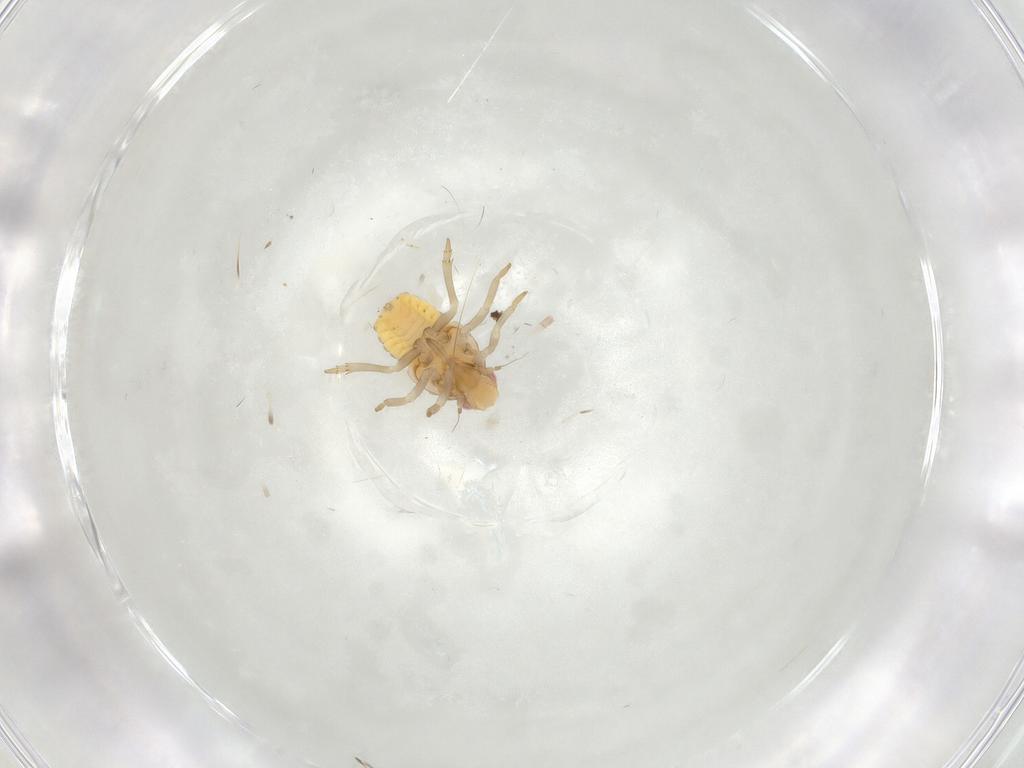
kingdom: Animalia
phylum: Arthropoda
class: Insecta
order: Hemiptera
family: Flatidae
